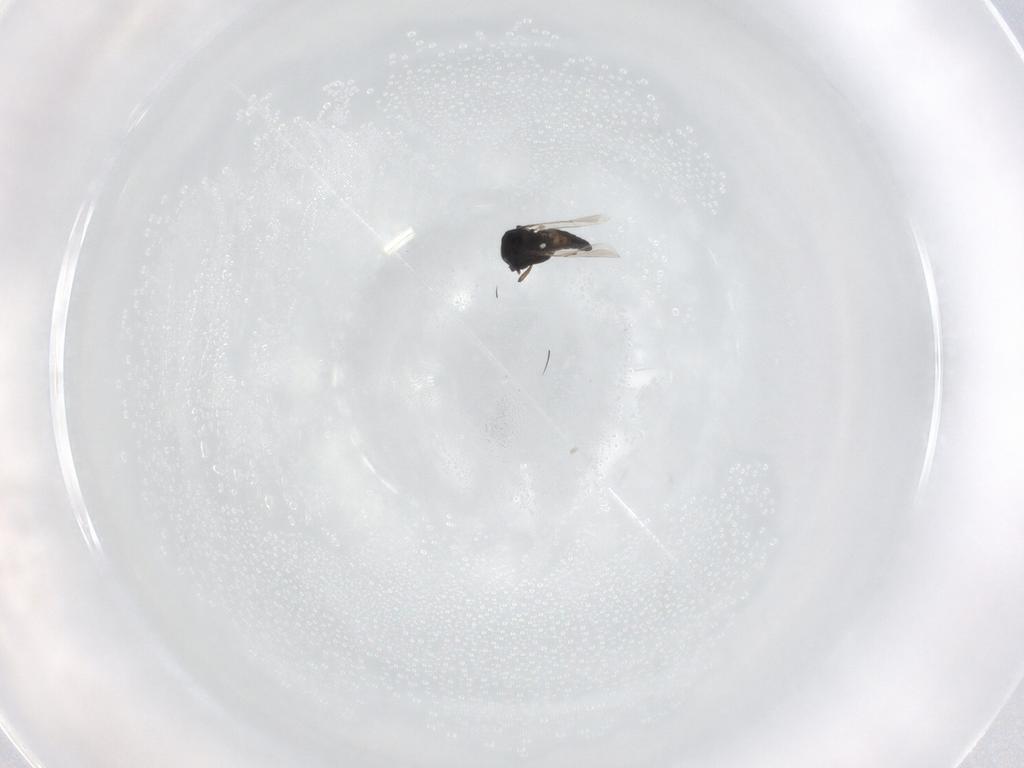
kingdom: Animalia
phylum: Arthropoda
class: Insecta
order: Diptera
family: Ceratopogonidae
